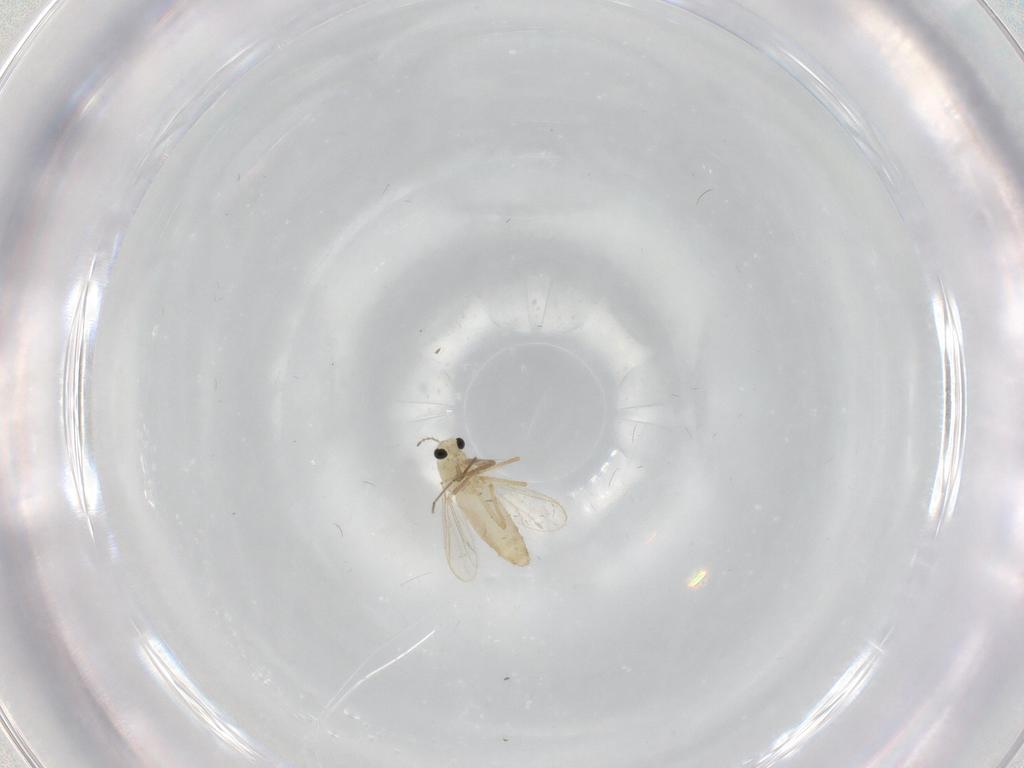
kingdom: Animalia
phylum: Arthropoda
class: Insecta
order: Diptera
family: Chironomidae
